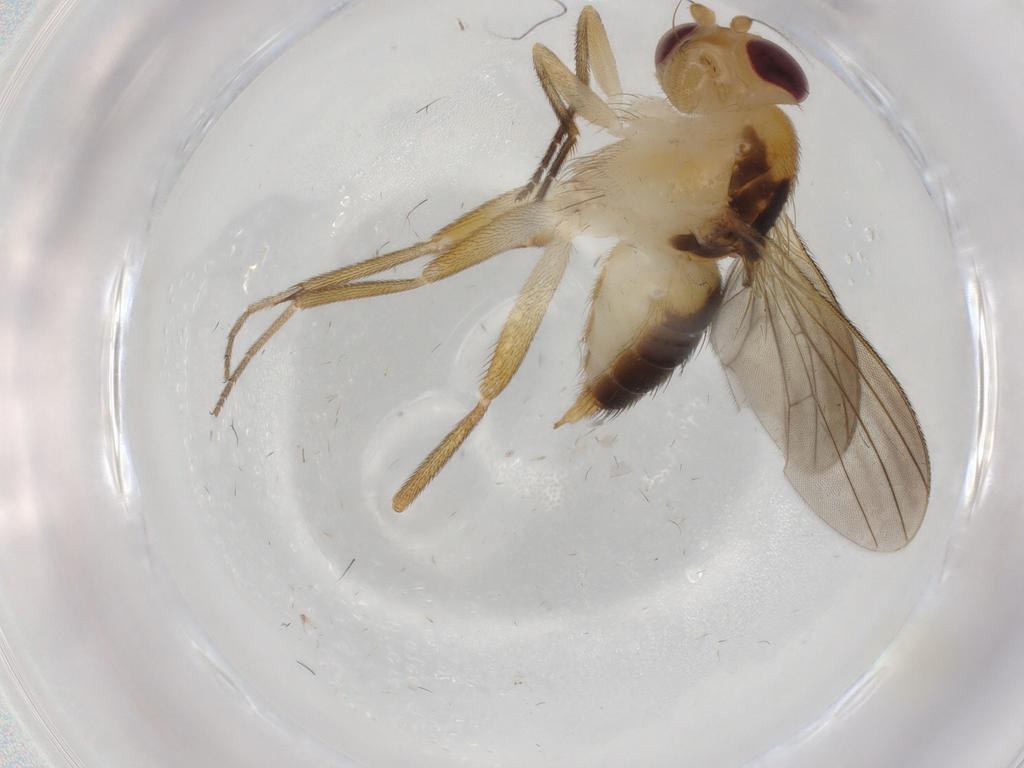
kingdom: Animalia
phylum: Arthropoda
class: Insecta
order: Diptera
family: Agromyzidae
